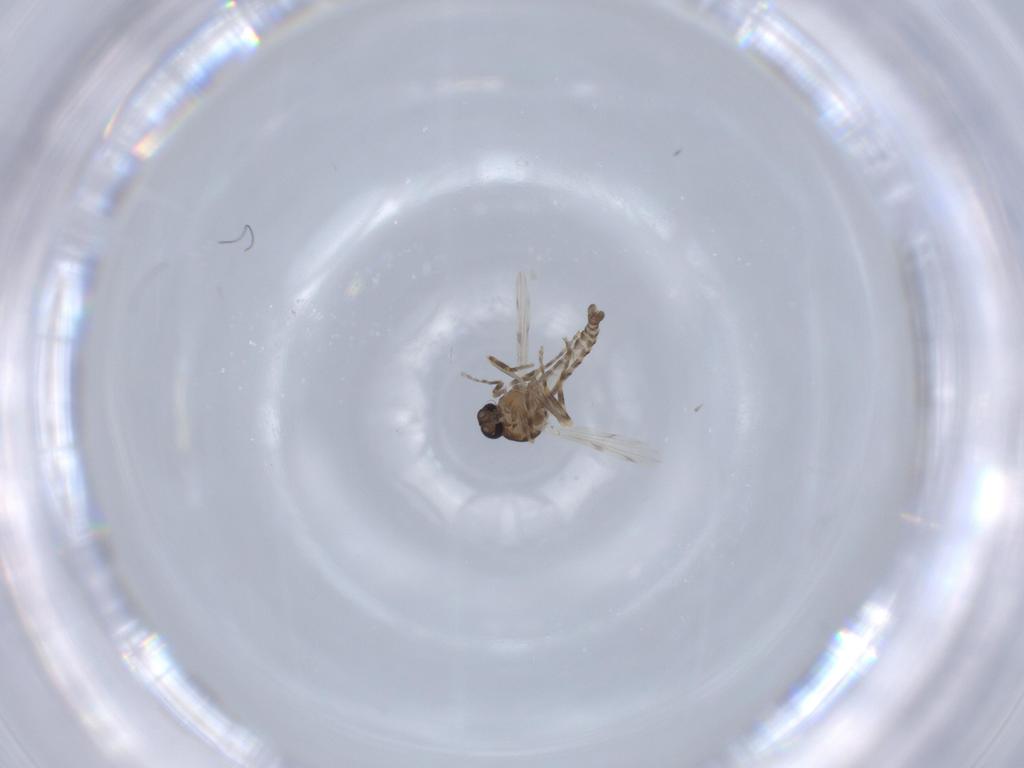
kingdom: Animalia
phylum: Arthropoda
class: Insecta
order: Diptera
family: Ceratopogonidae
